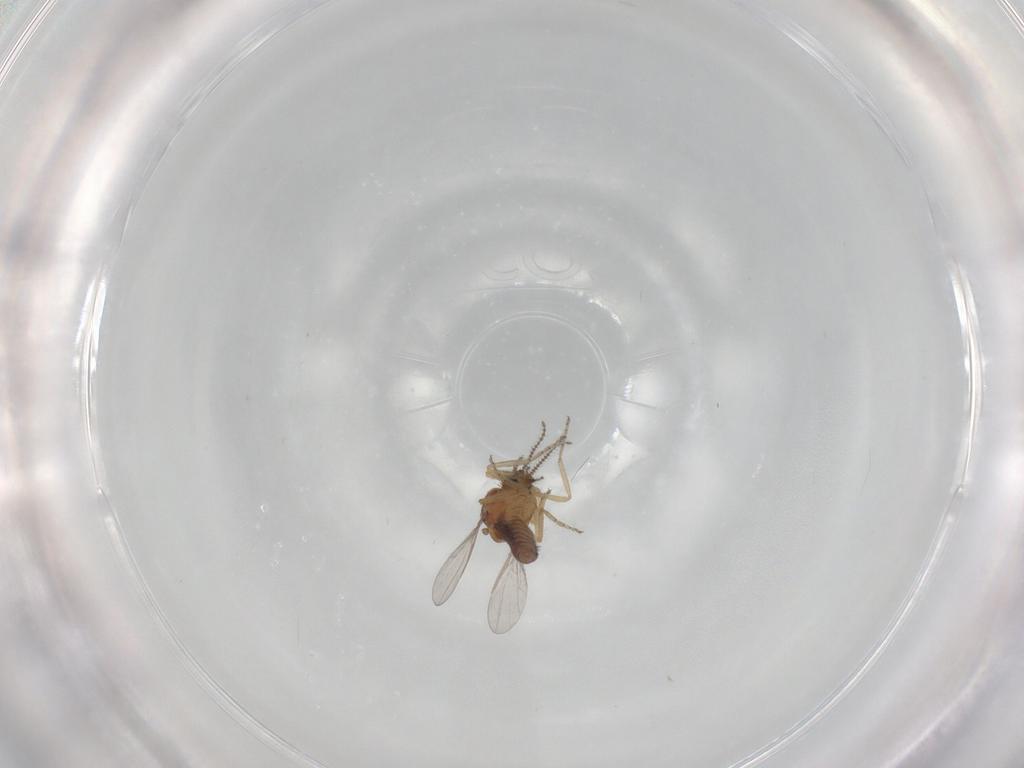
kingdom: Animalia
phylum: Arthropoda
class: Insecta
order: Diptera
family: Ceratopogonidae
